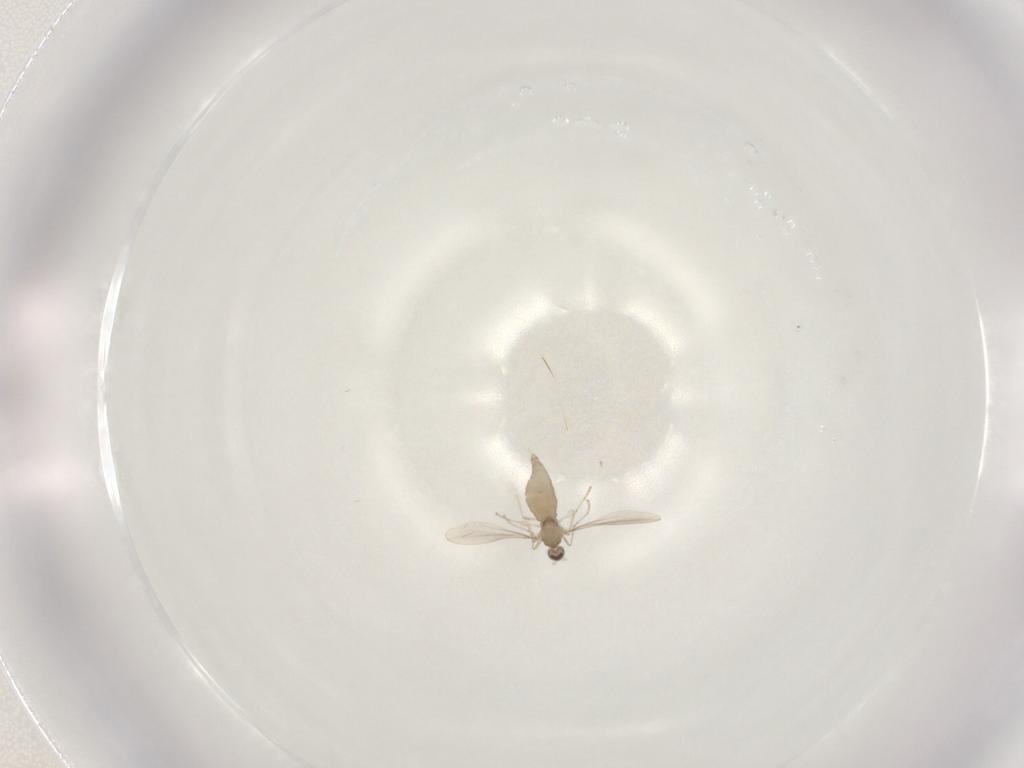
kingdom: Animalia
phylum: Arthropoda
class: Insecta
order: Diptera
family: Cecidomyiidae
